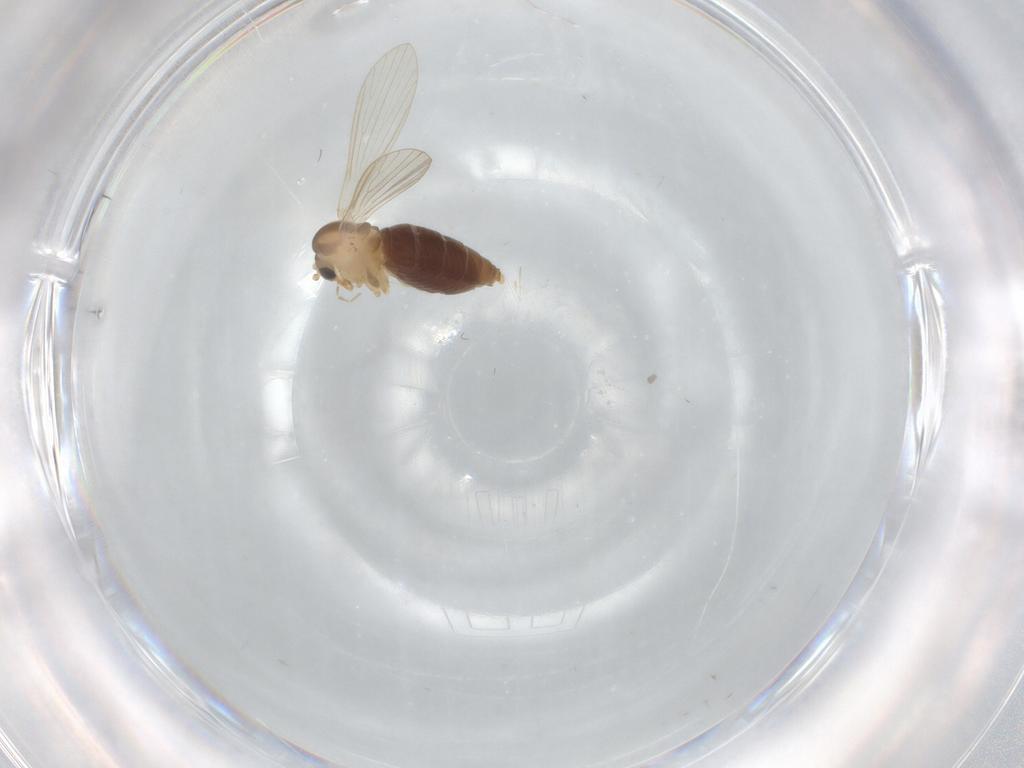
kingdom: Animalia
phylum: Arthropoda
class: Insecta
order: Diptera
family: Psychodidae
